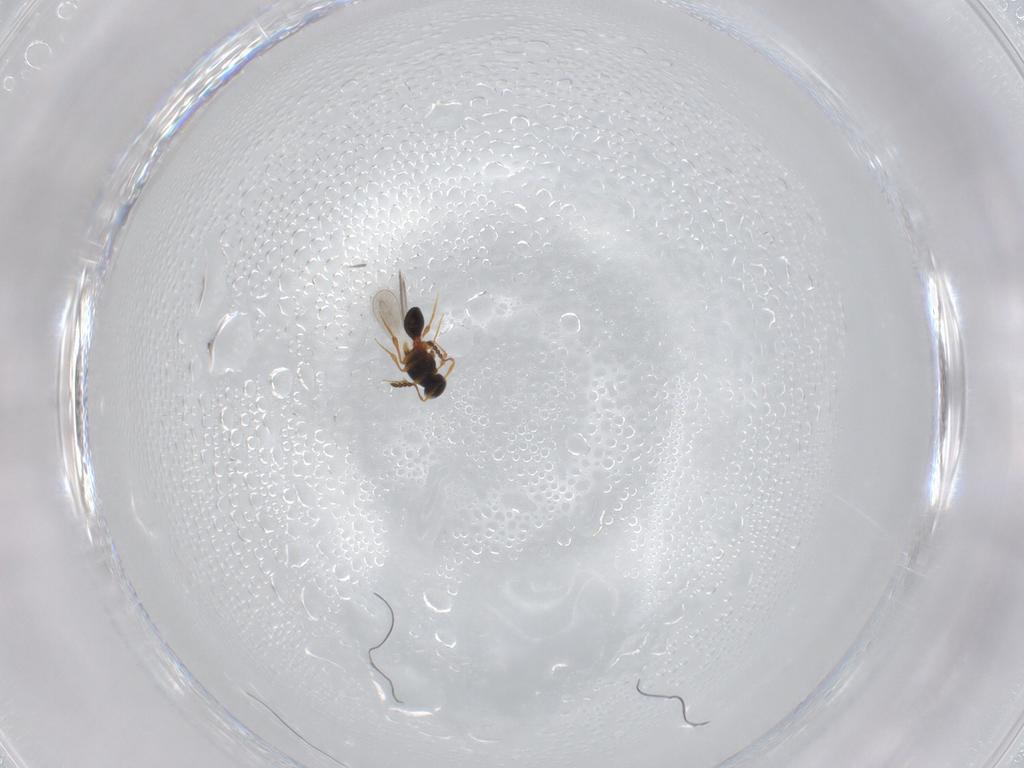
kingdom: Animalia
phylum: Arthropoda
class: Insecta
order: Hymenoptera
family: Platygastridae
